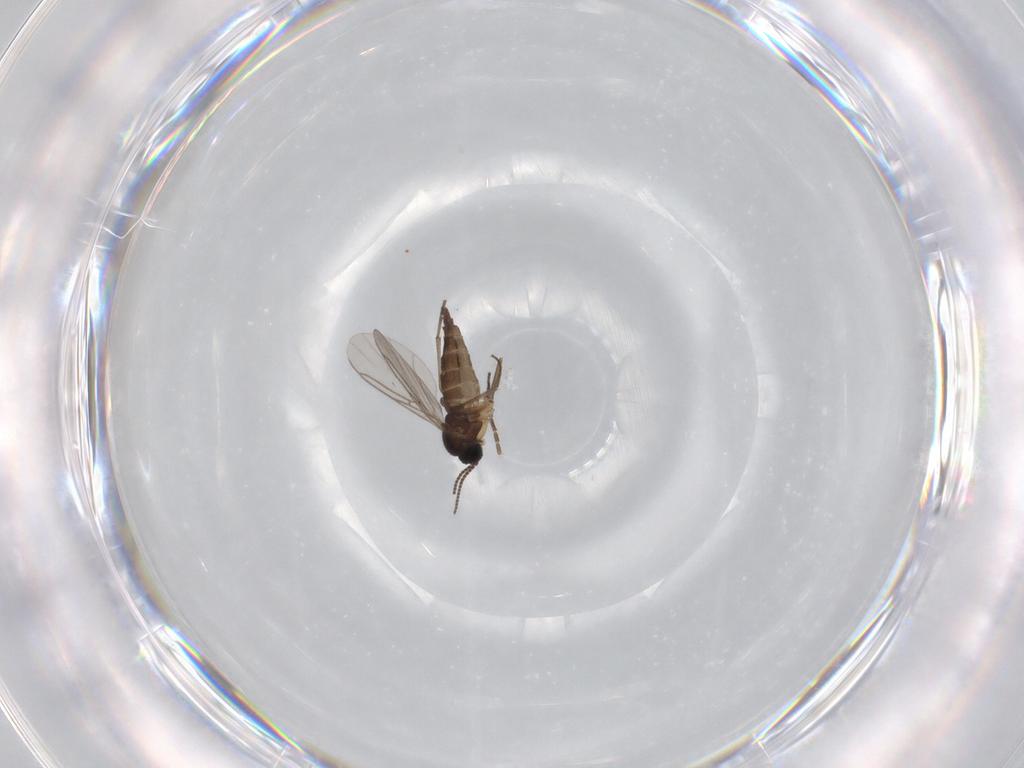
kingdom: Animalia
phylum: Arthropoda
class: Insecta
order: Diptera
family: Sciaridae
